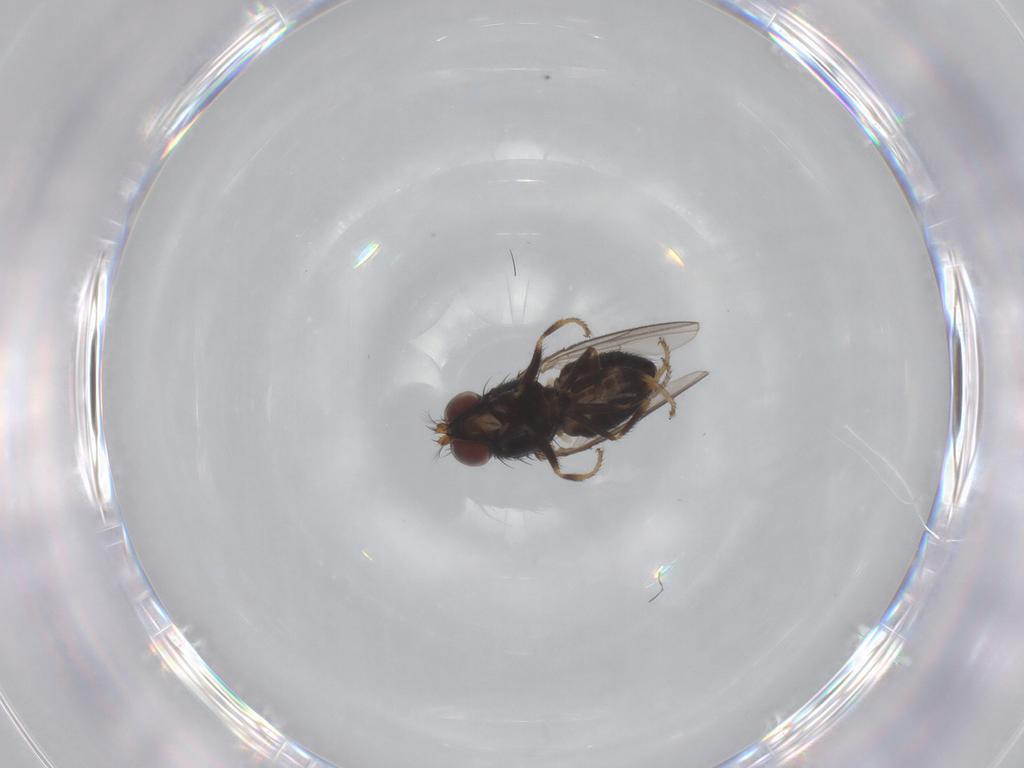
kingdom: Animalia
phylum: Arthropoda
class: Insecta
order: Diptera
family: Ephydridae
